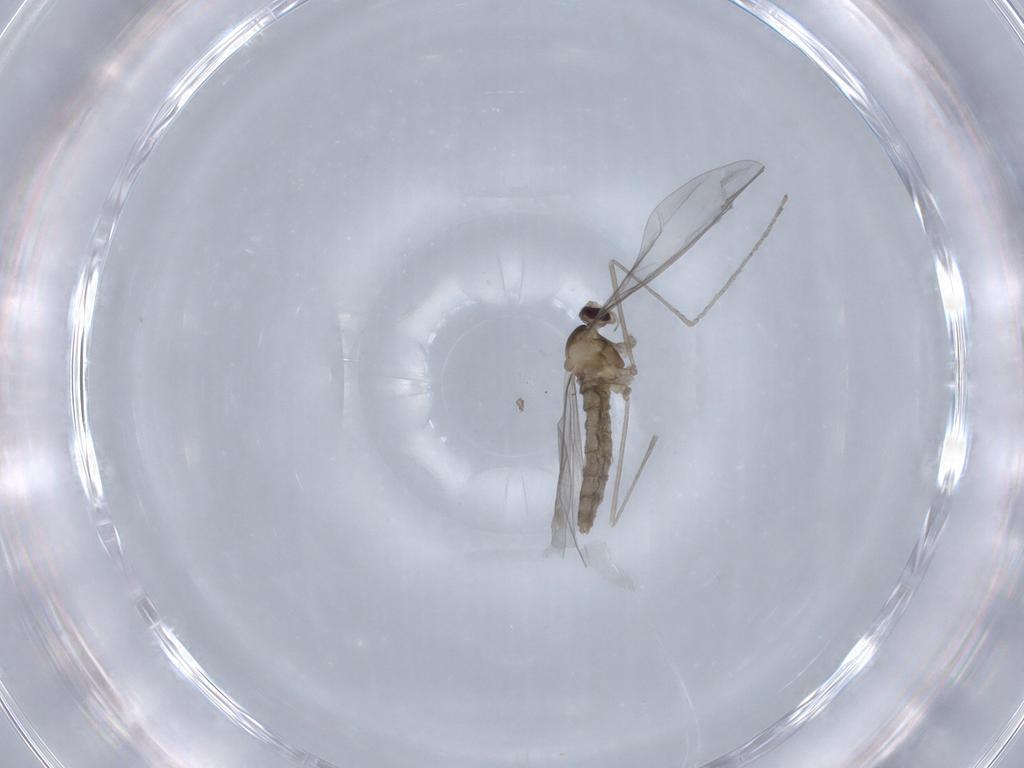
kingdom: Animalia
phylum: Arthropoda
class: Insecta
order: Diptera
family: Cecidomyiidae
